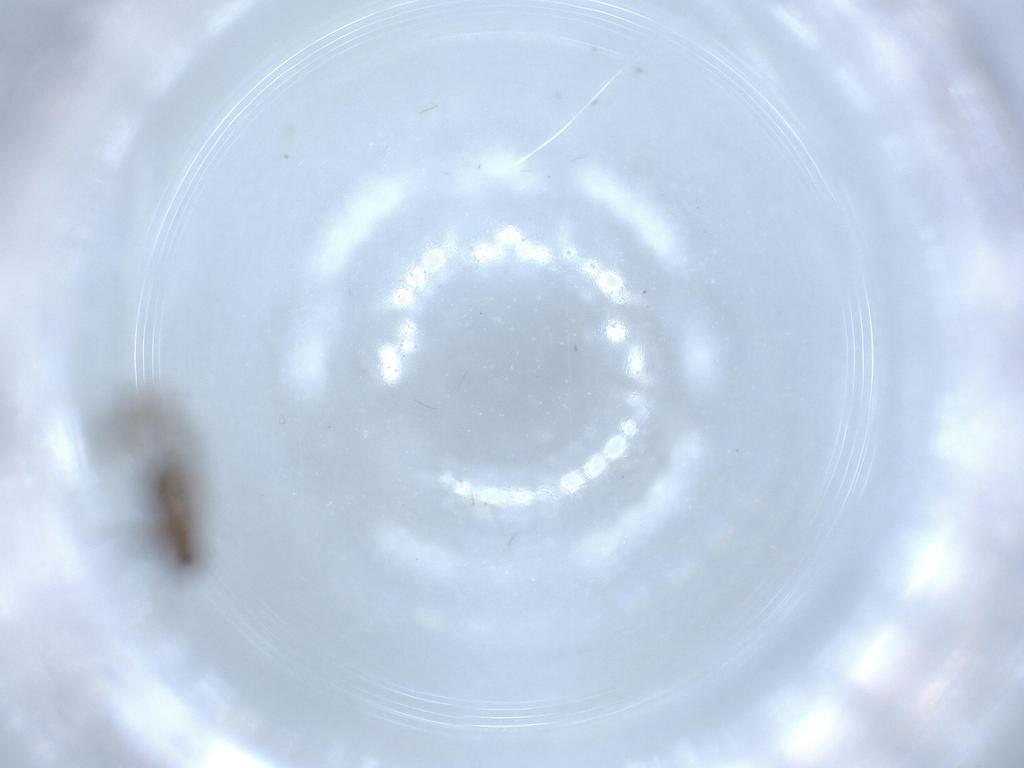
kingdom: Animalia
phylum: Arthropoda
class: Insecta
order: Diptera
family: Cecidomyiidae
